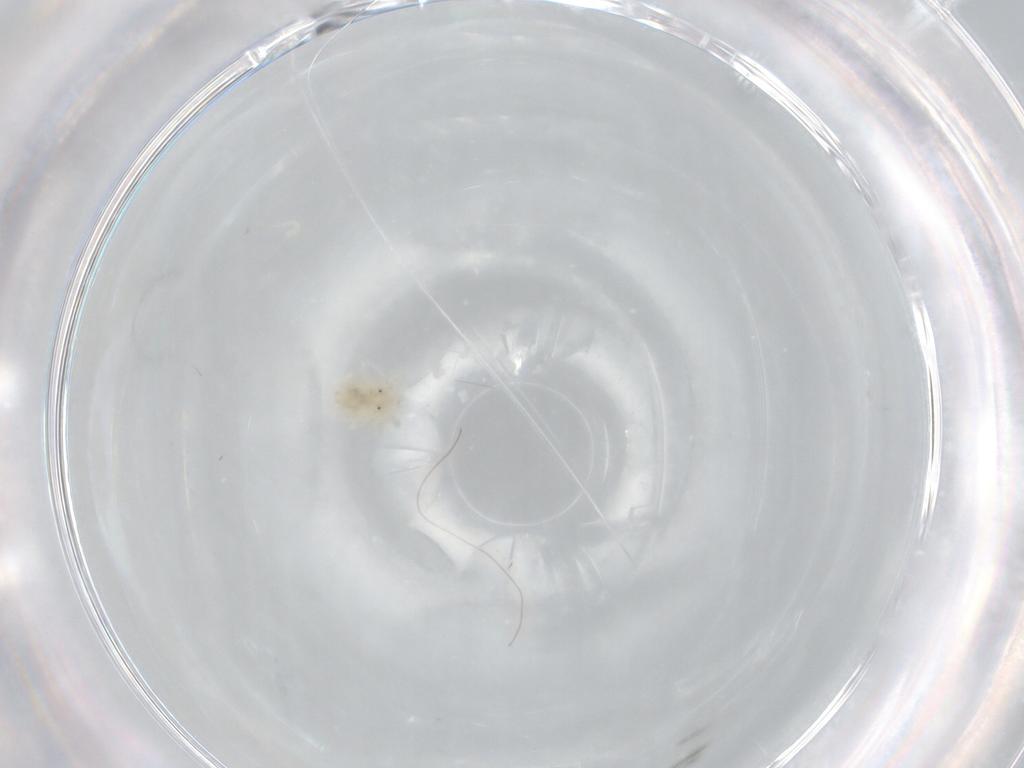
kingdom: Animalia
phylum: Arthropoda
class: Arachnida
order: Trombidiformes
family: Anystidae
